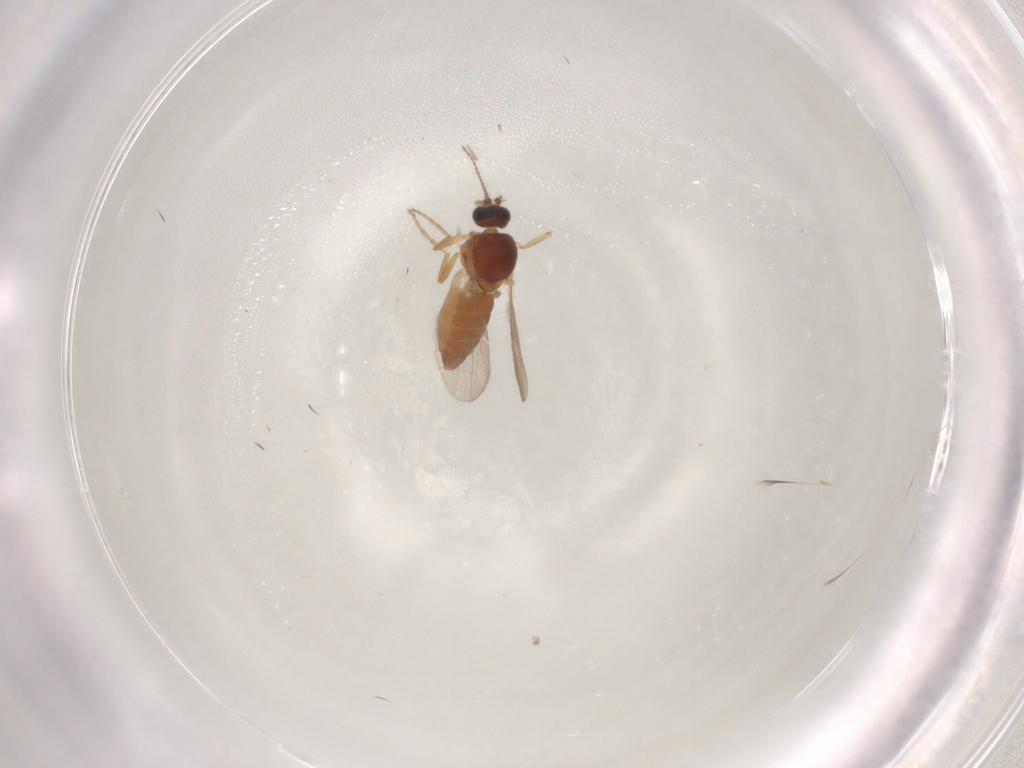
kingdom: Animalia
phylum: Arthropoda
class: Insecta
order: Diptera
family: Ceratopogonidae
